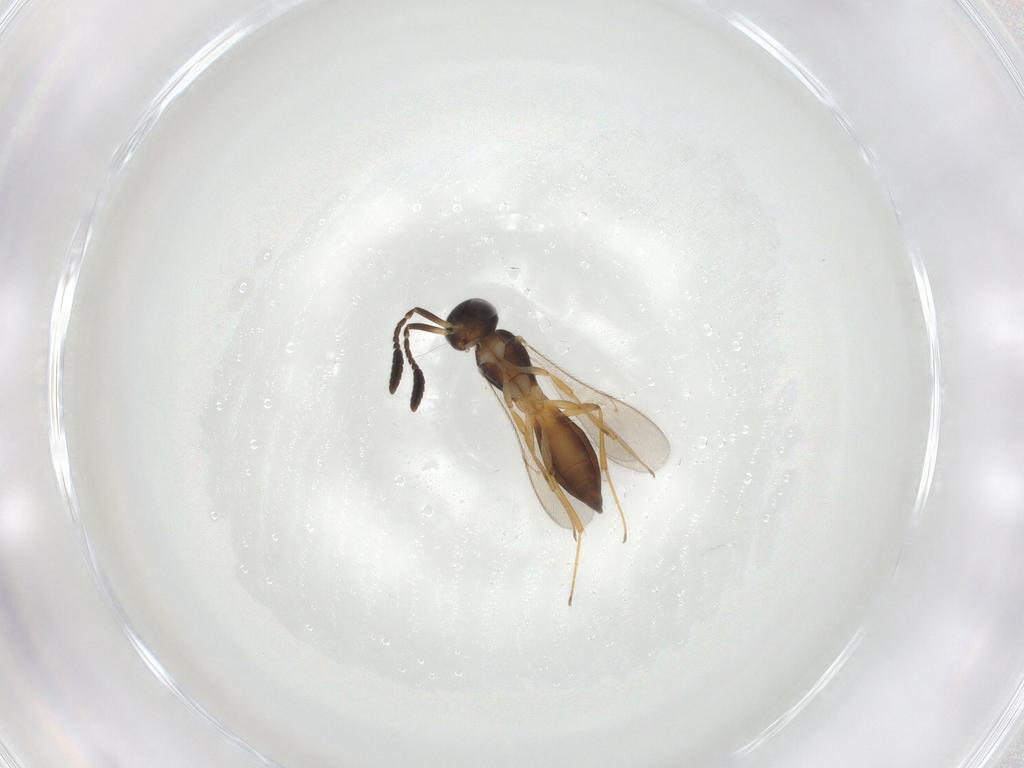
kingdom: Animalia
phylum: Arthropoda
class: Insecta
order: Hymenoptera
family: Scelionidae
